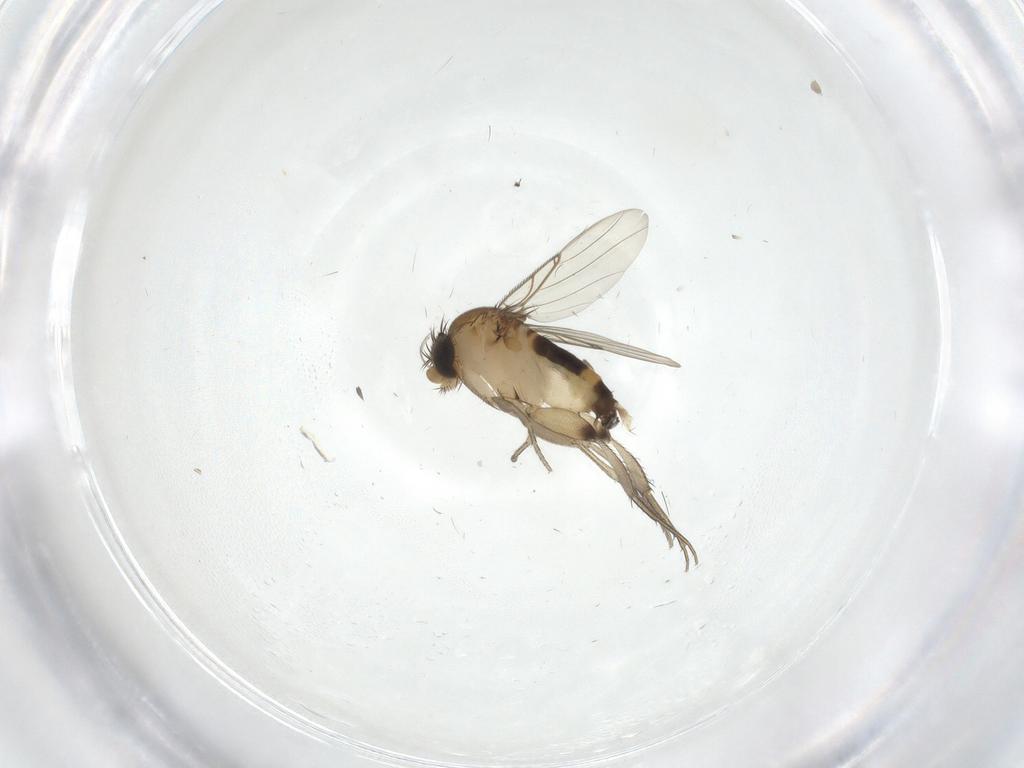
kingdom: Animalia
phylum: Arthropoda
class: Insecta
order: Diptera
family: Phoridae
